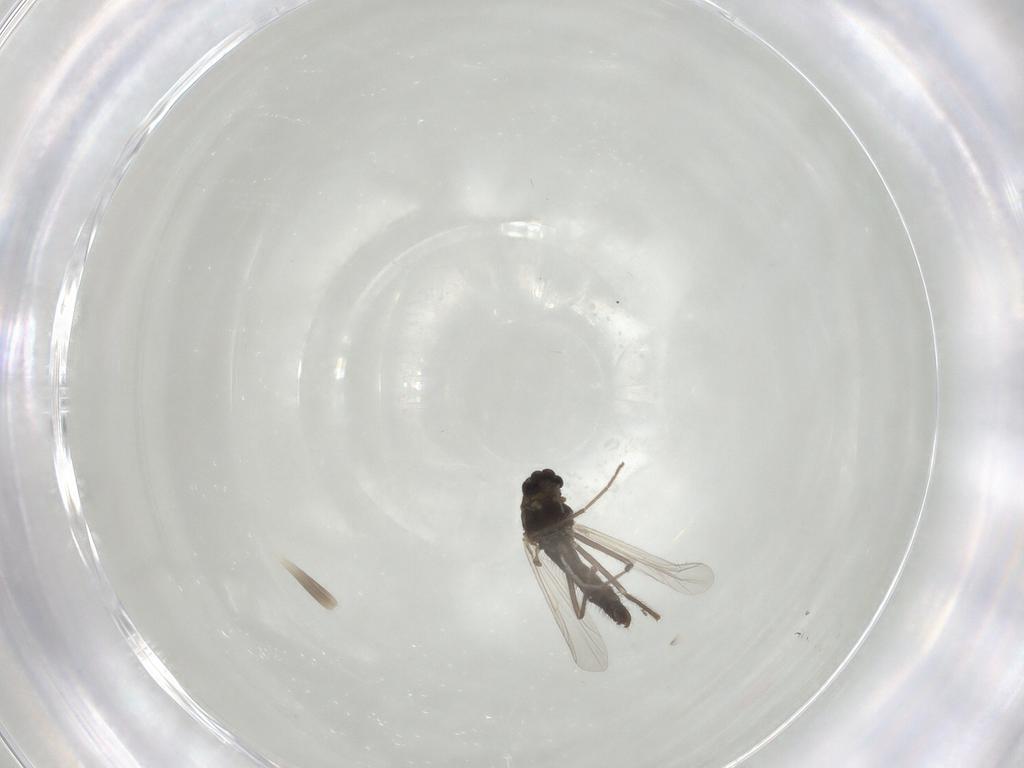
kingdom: Animalia
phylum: Arthropoda
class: Insecta
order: Diptera
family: Chironomidae
